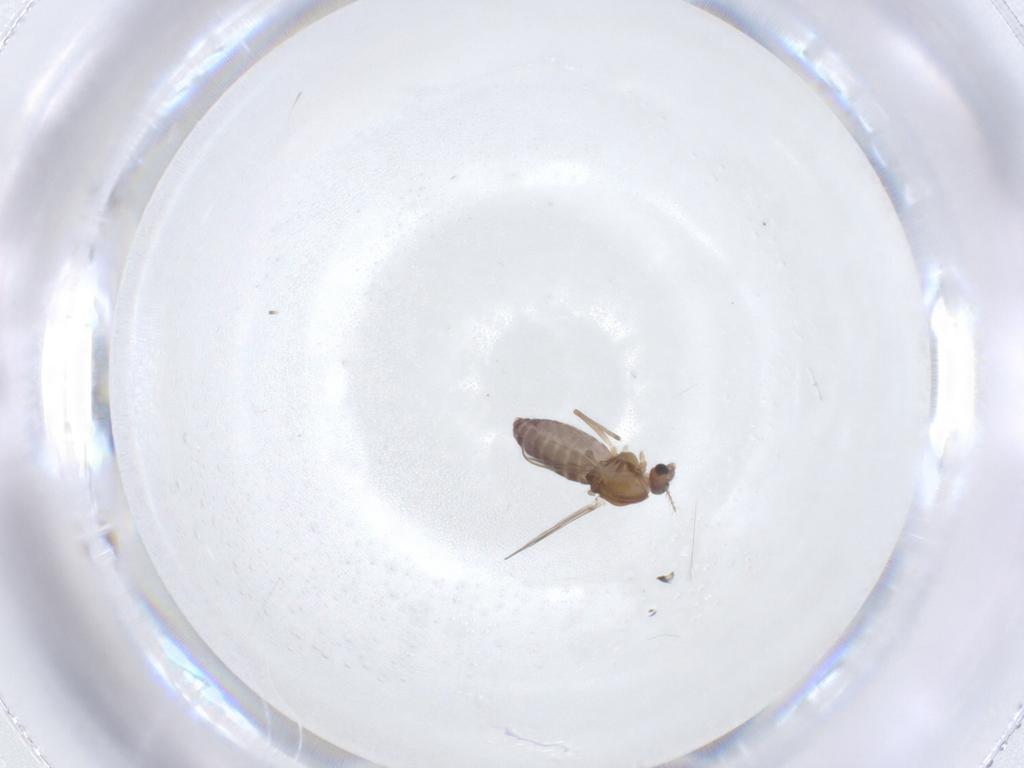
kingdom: Animalia
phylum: Arthropoda
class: Insecta
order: Diptera
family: Chironomidae
